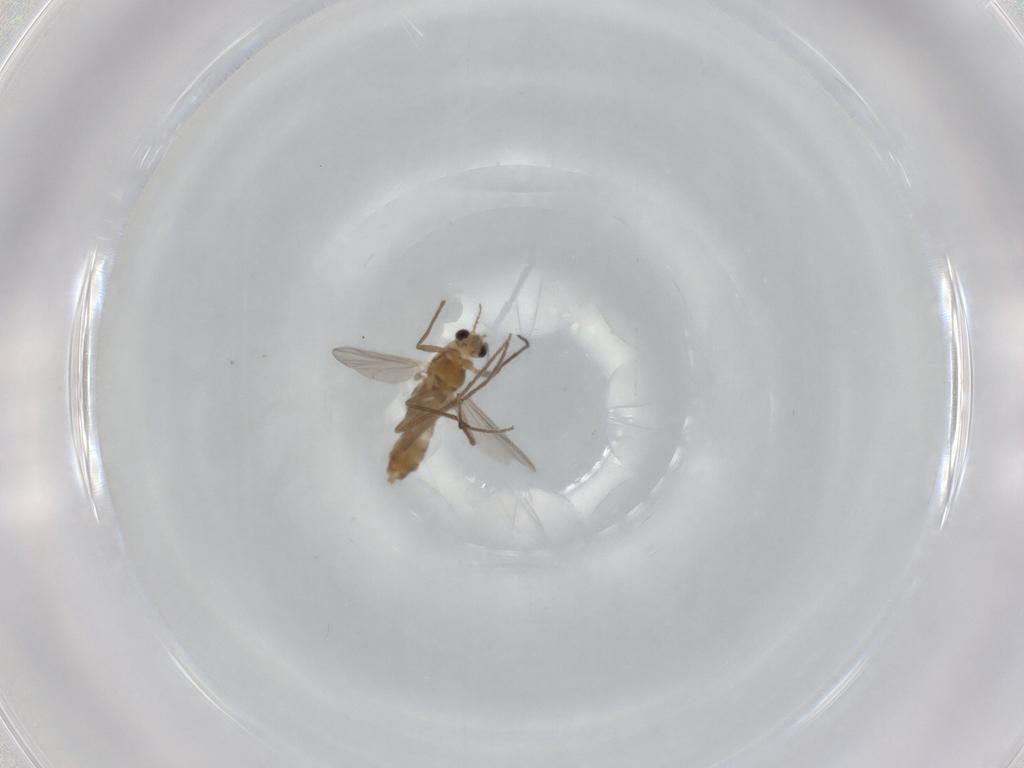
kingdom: Animalia
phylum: Arthropoda
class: Insecta
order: Diptera
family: Chironomidae
